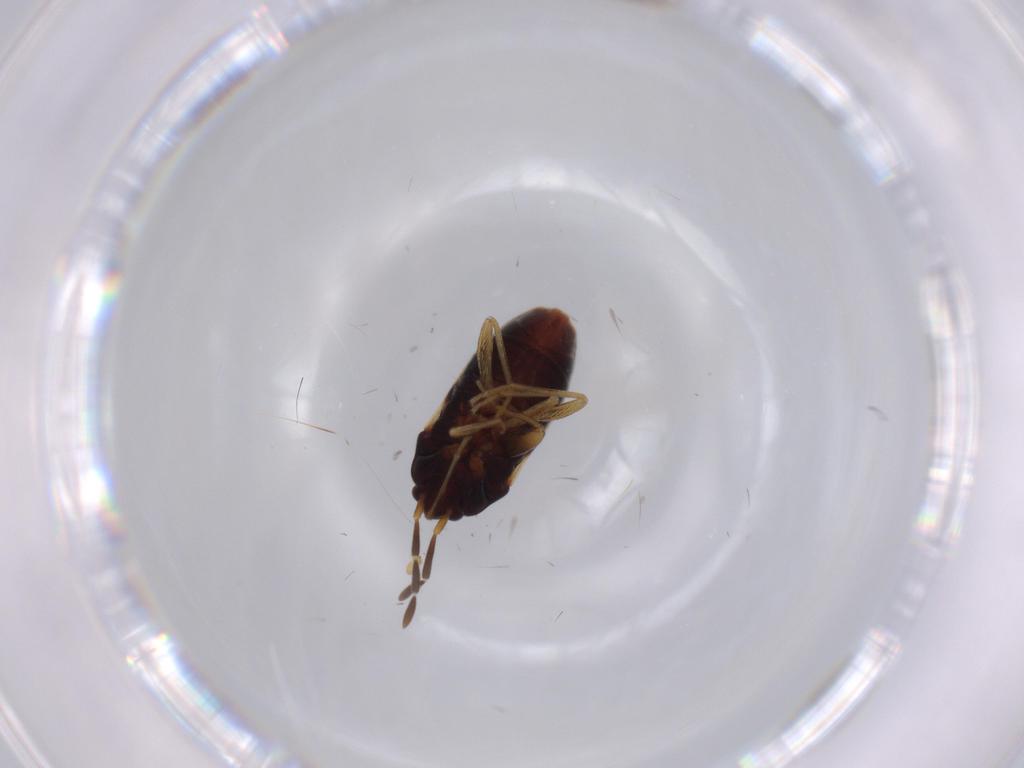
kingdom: Animalia
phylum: Arthropoda
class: Insecta
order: Hemiptera
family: Rhyparochromidae
